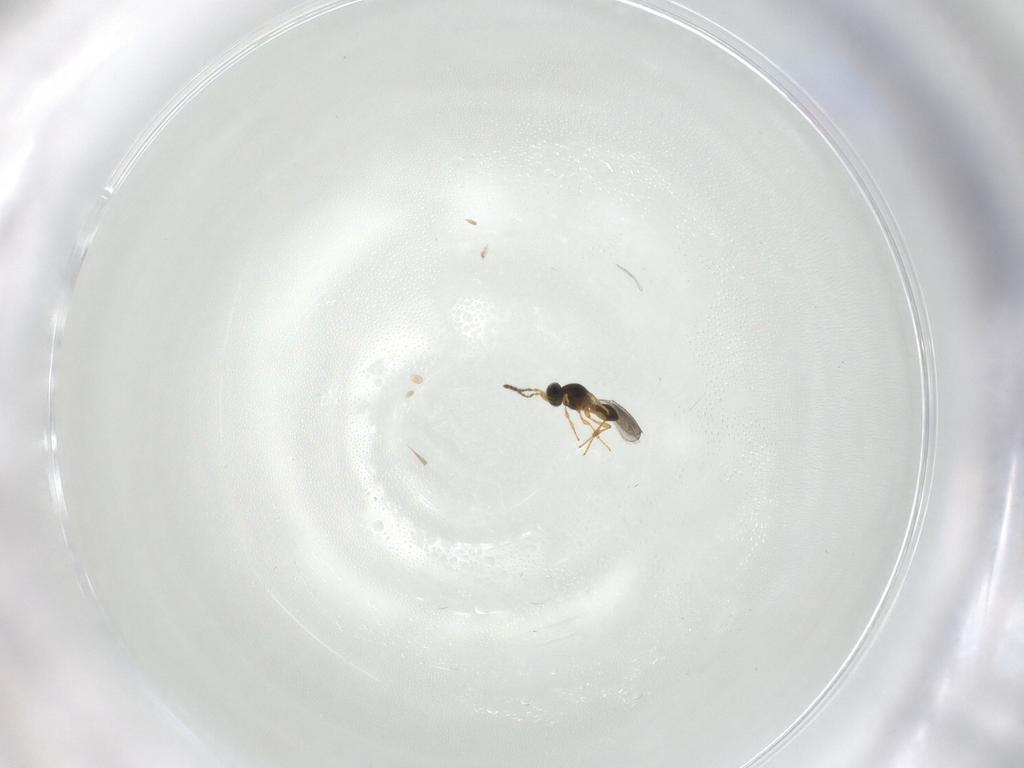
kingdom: Animalia
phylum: Arthropoda
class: Insecta
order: Hymenoptera
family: Platygastridae
